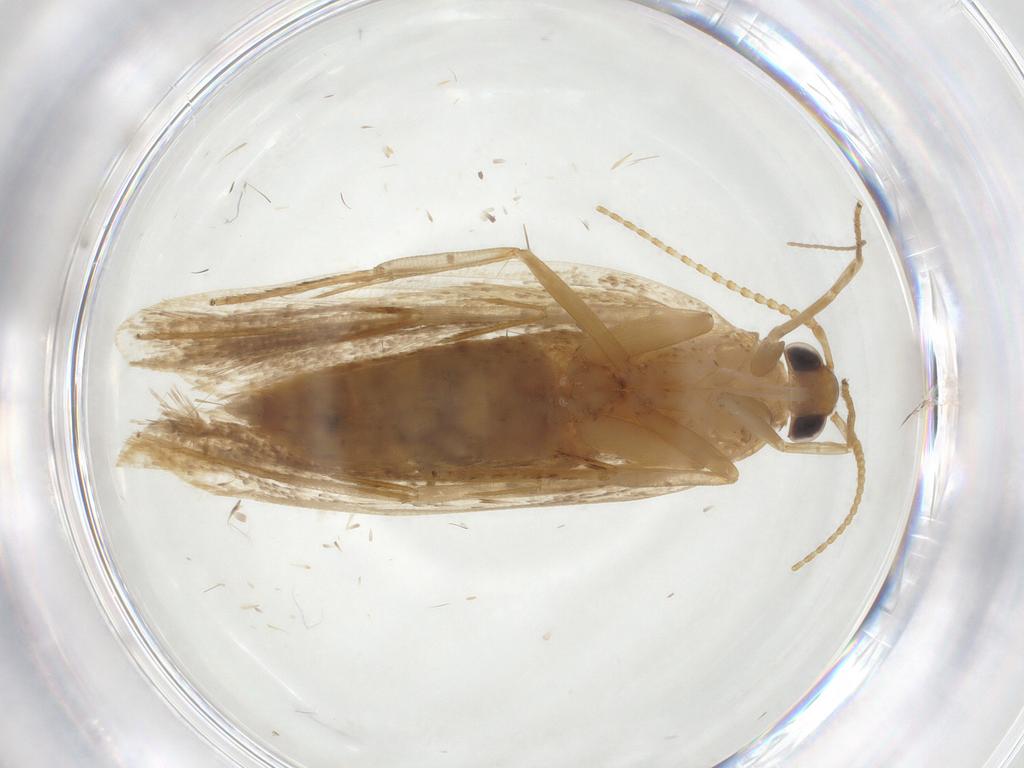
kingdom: Animalia
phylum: Arthropoda
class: Insecta
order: Lepidoptera
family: Lecithoceridae
